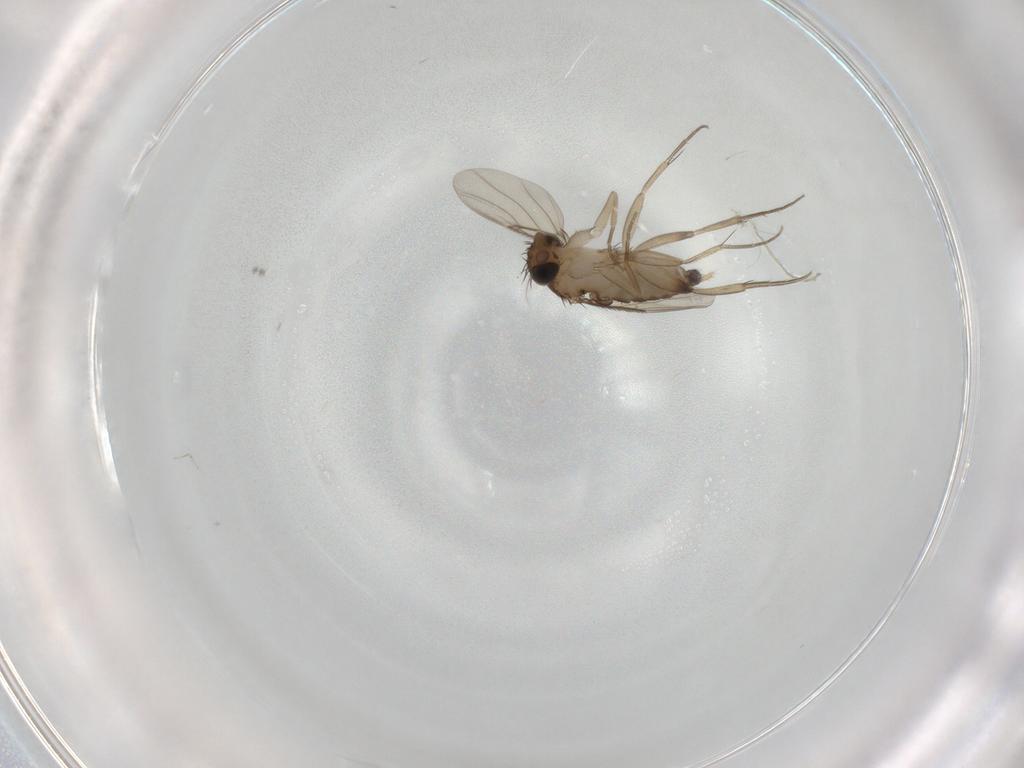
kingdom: Animalia
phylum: Arthropoda
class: Insecta
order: Diptera
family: Phoridae
